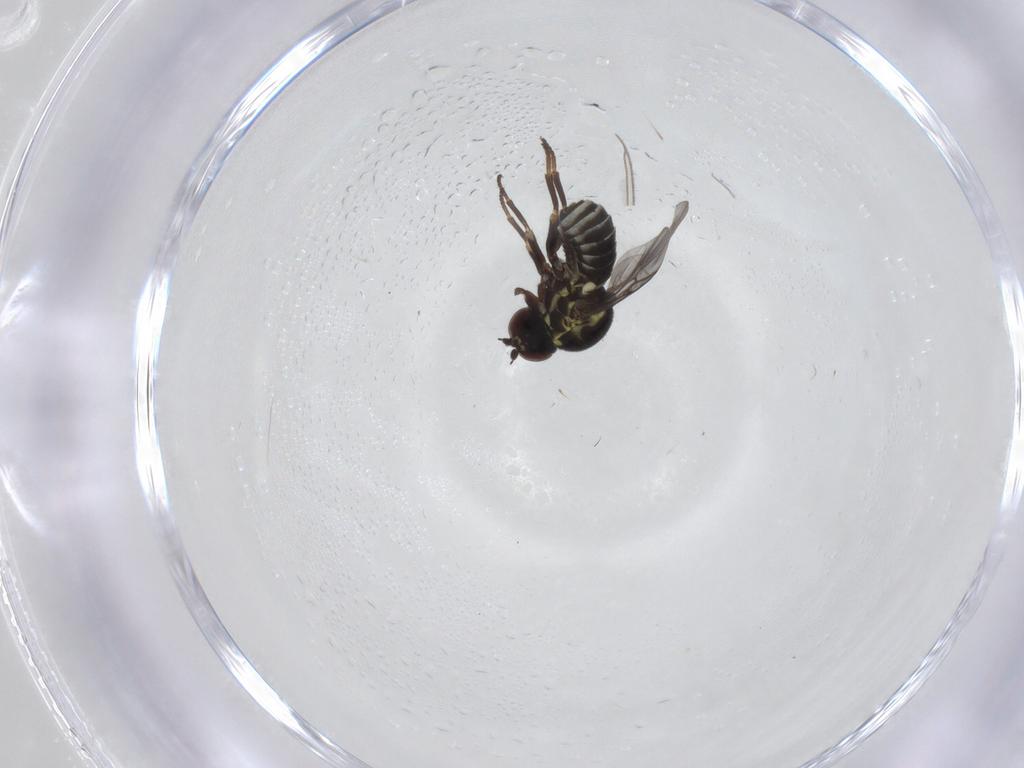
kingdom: Animalia
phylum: Arthropoda
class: Insecta
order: Diptera
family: Bombyliidae
